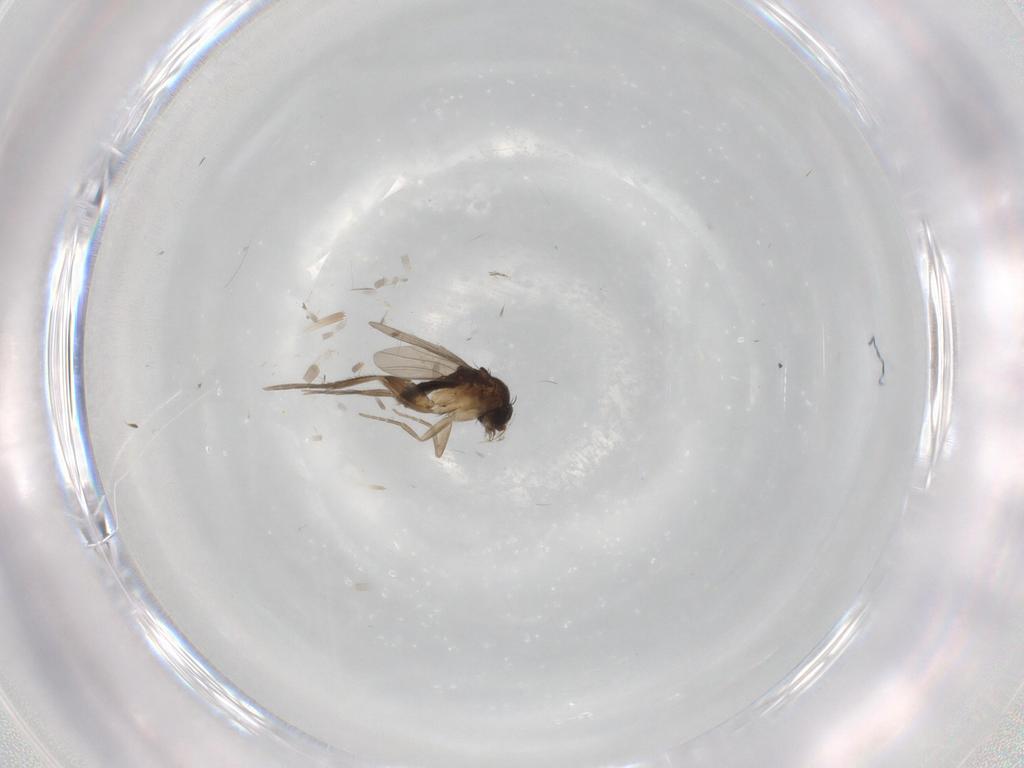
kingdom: Animalia
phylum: Arthropoda
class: Insecta
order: Diptera
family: Phoridae
